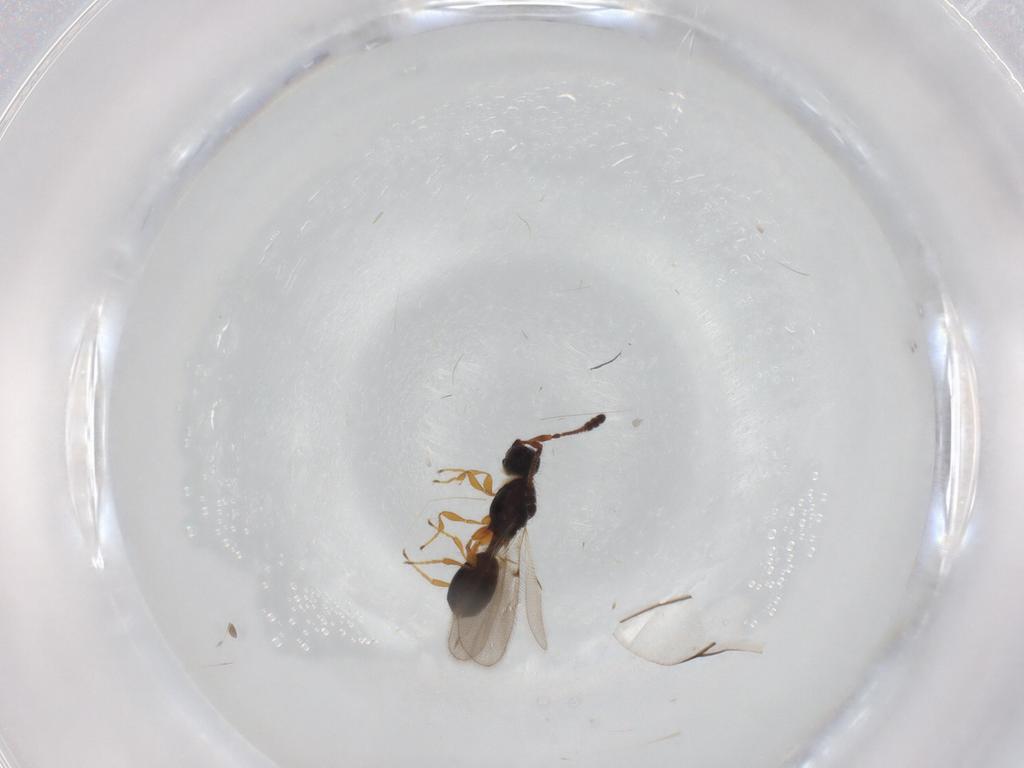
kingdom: Animalia
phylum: Arthropoda
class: Insecta
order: Hymenoptera
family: Diapriidae
